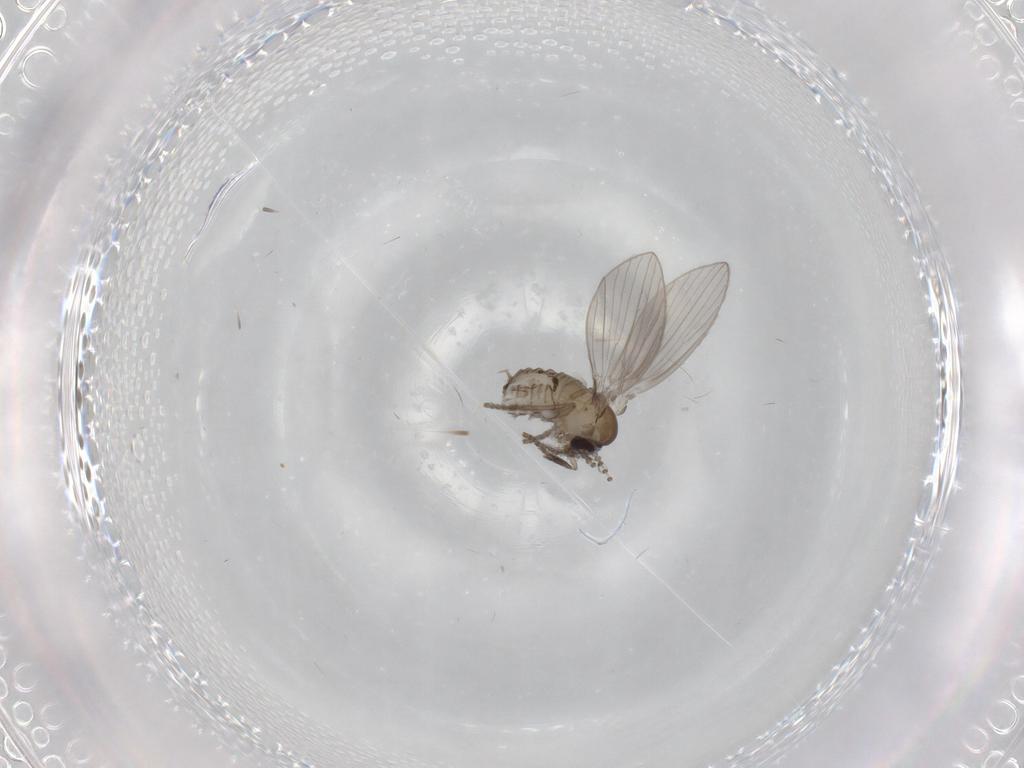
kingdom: Animalia
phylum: Arthropoda
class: Insecta
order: Diptera
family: Psychodidae
